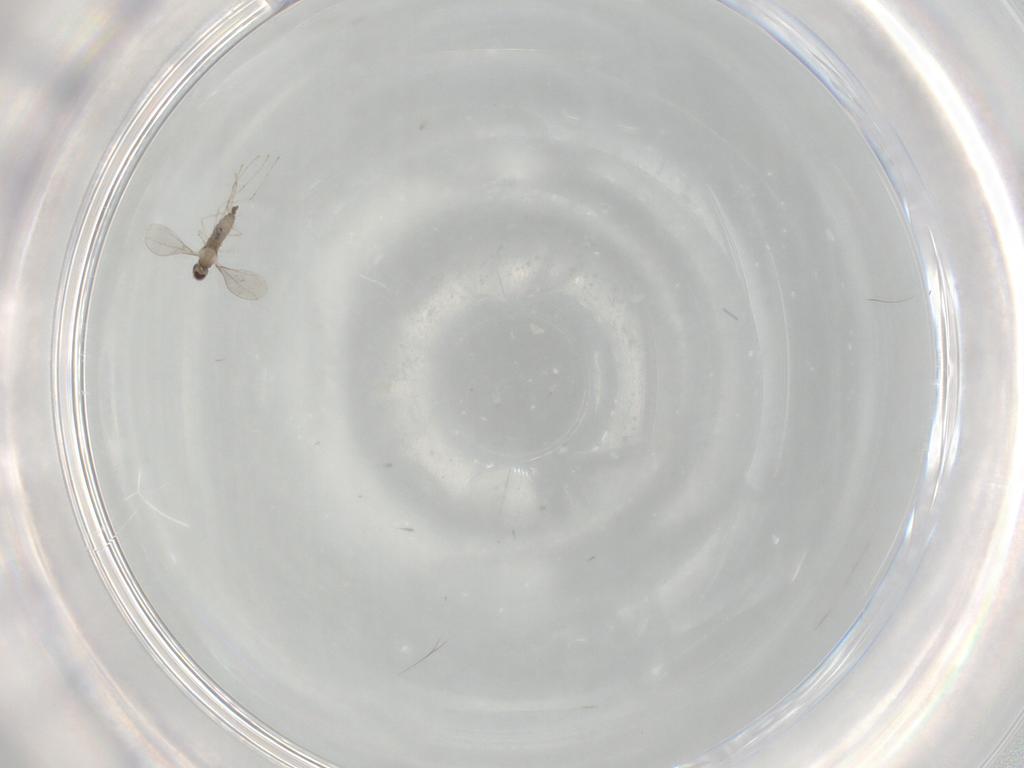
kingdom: Animalia
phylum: Arthropoda
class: Insecta
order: Diptera
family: Cecidomyiidae
